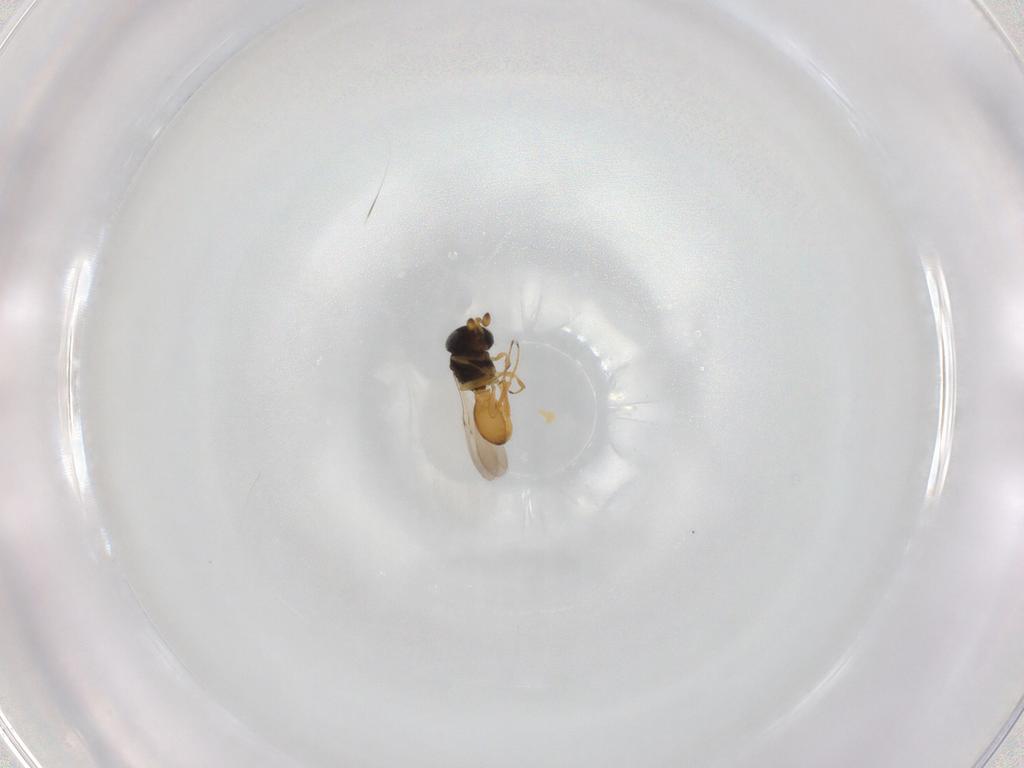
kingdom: Animalia
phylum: Arthropoda
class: Insecta
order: Hymenoptera
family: Scelionidae
